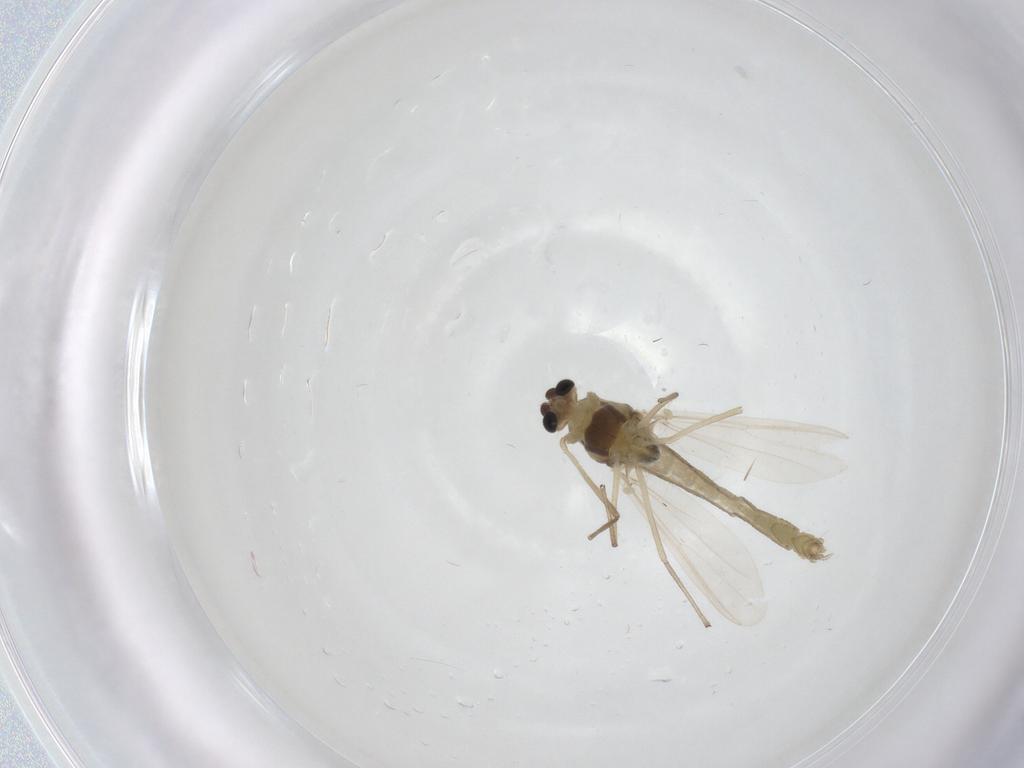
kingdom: Animalia
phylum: Arthropoda
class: Insecta
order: Diptera
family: Chironomidae
